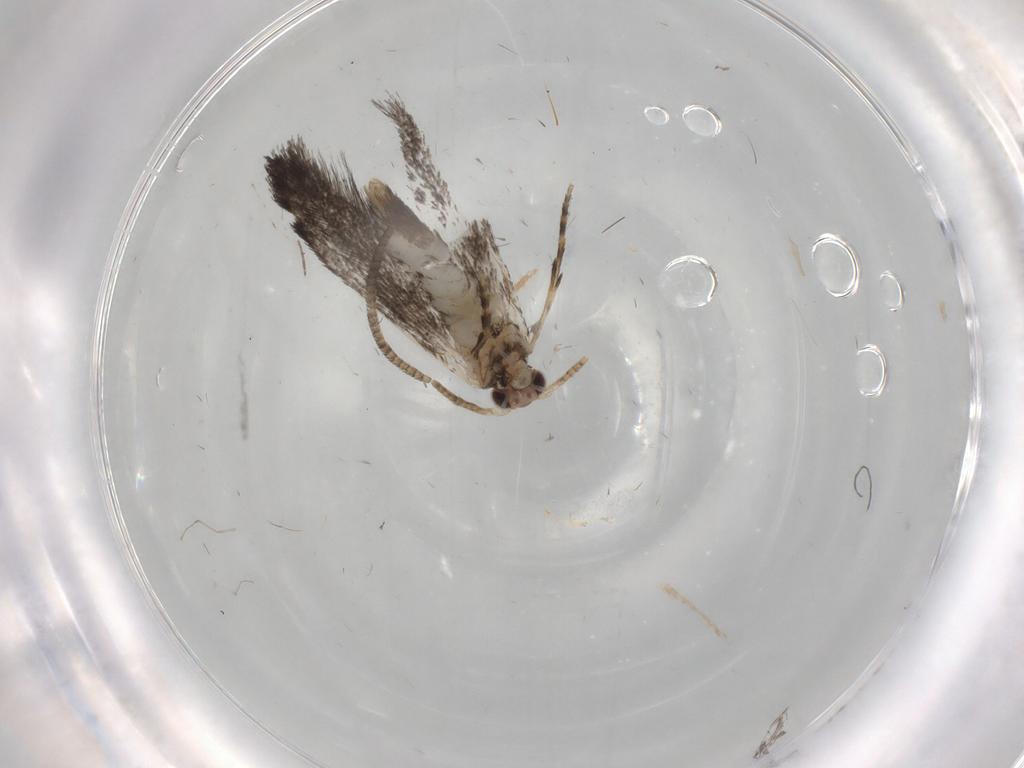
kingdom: Animalia
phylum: Arthropoda
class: Insecta
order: Lepidoptera
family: Tineidae
